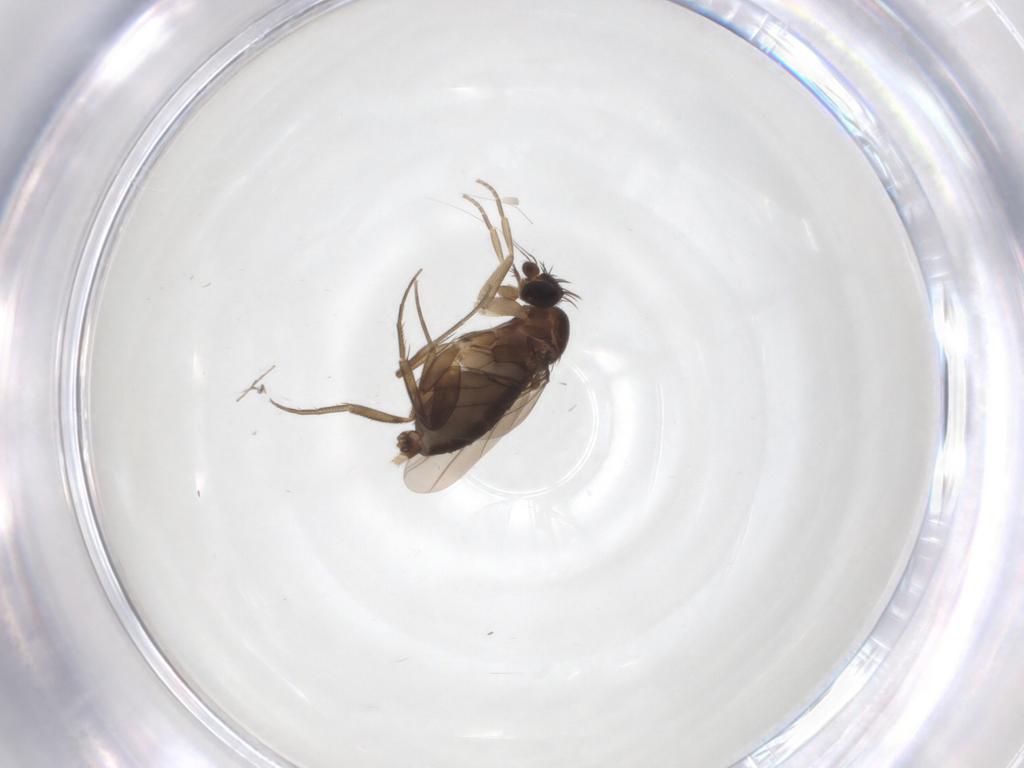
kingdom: Animalia
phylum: Arthropoda
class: Insecta
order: Diptera
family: Phoridae
